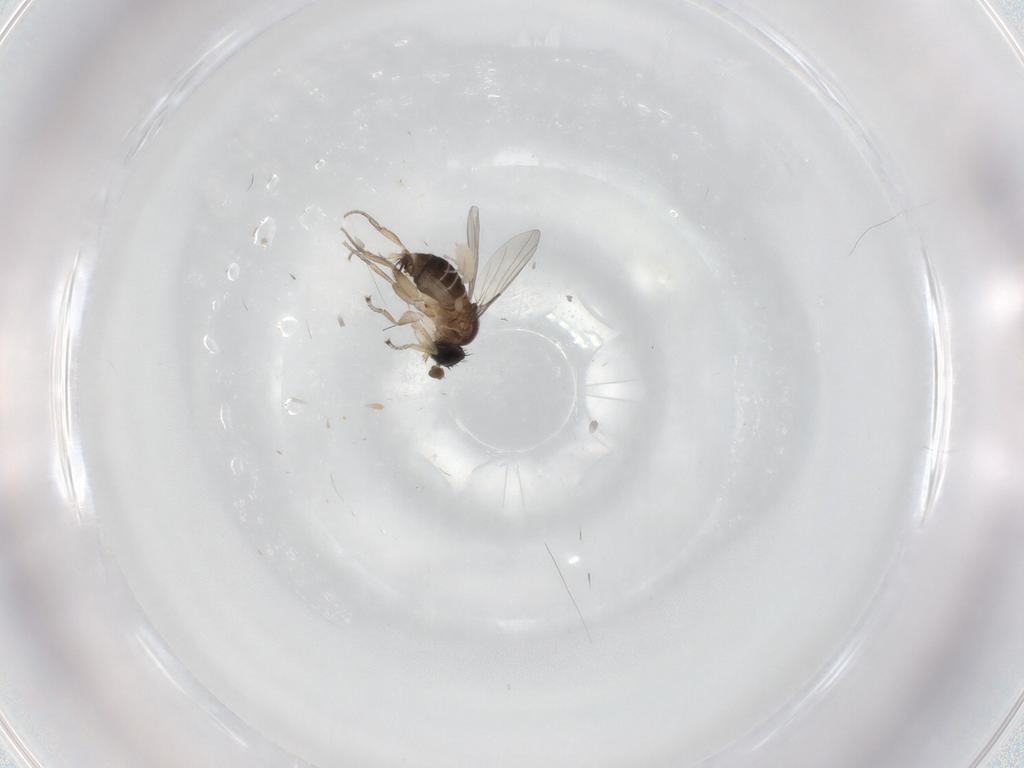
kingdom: Animalia
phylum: Arthropoda
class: Insecta
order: Diptera
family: Phoridae
